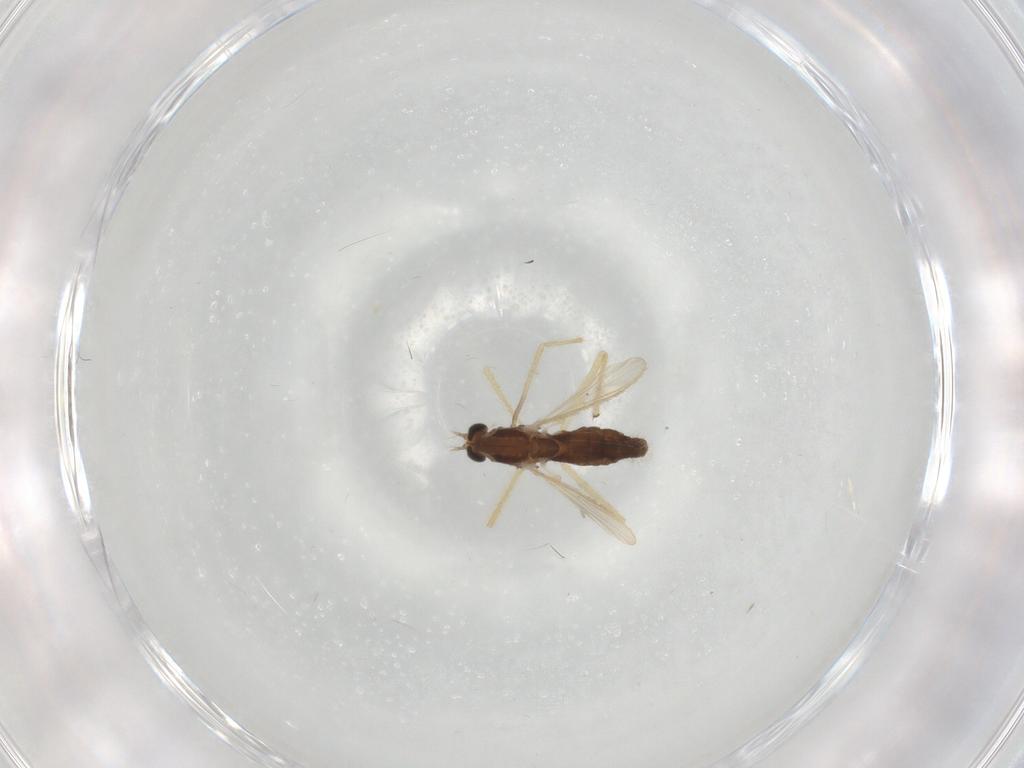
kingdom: Animalia
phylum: Arthropoda
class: Insecta
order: Diptera
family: Chironomidae
